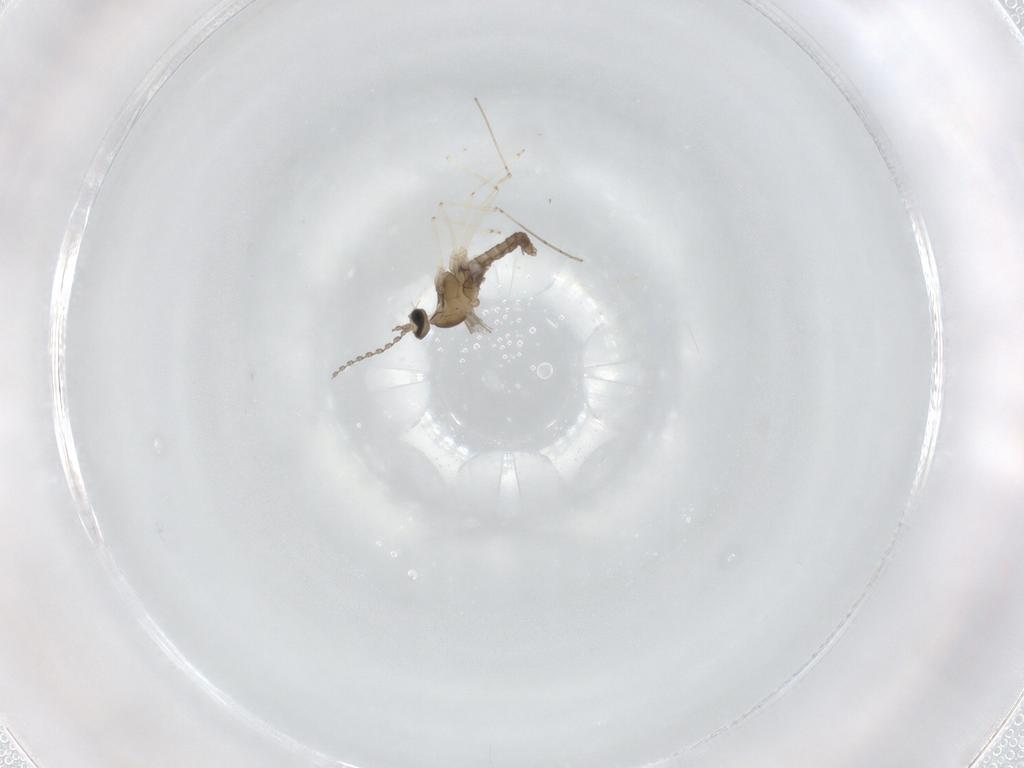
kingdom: Animalia
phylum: Arthropoda
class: Insecta
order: Diptera
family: Cecidomyiidae
